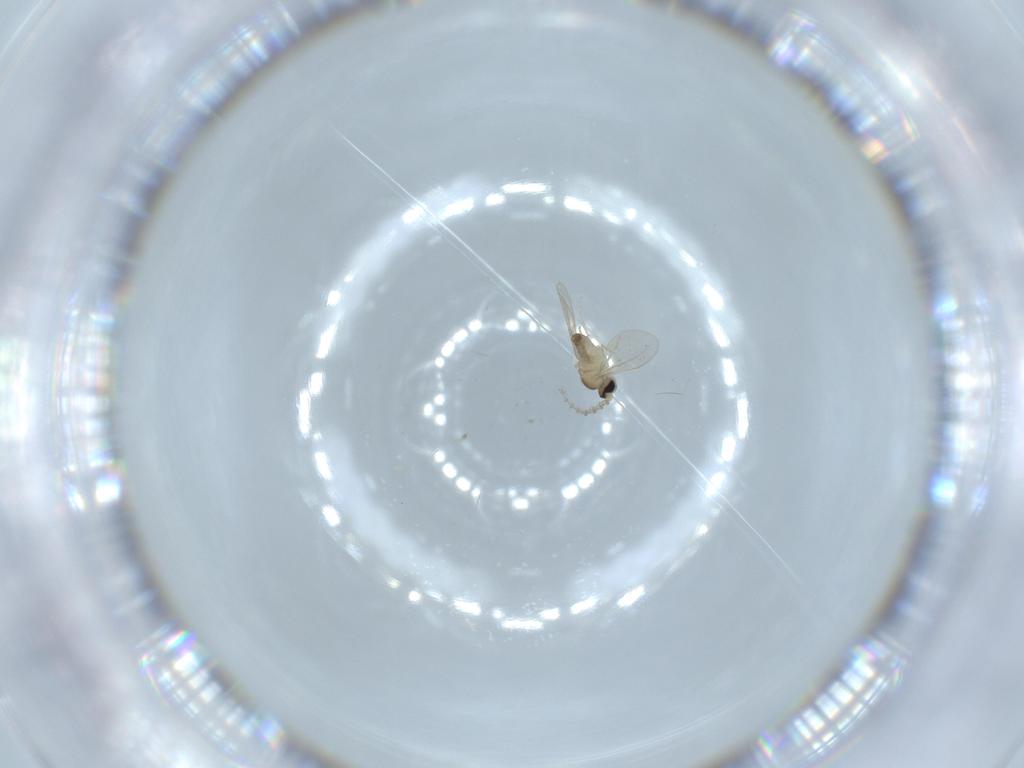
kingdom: Animalia
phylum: Arthropoda
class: Insecta
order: Diptera
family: Cecidomyiidae
